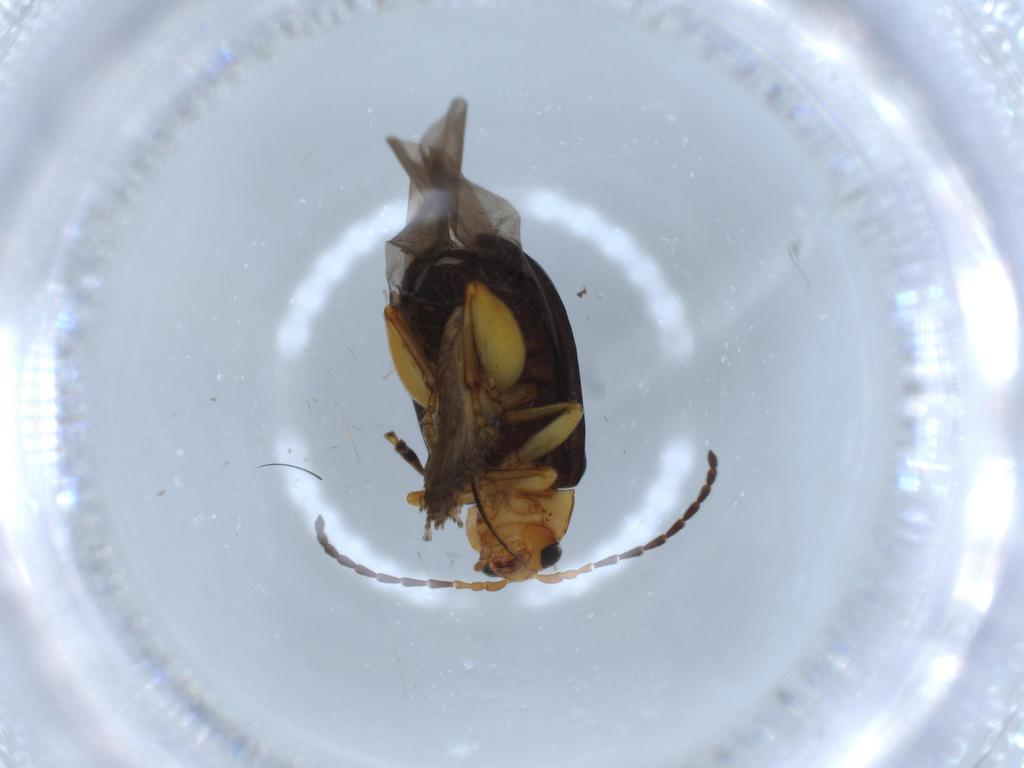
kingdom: Animalia
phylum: Arthropoda
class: Insecta
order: Coleoptera
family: Chrysomelidae
